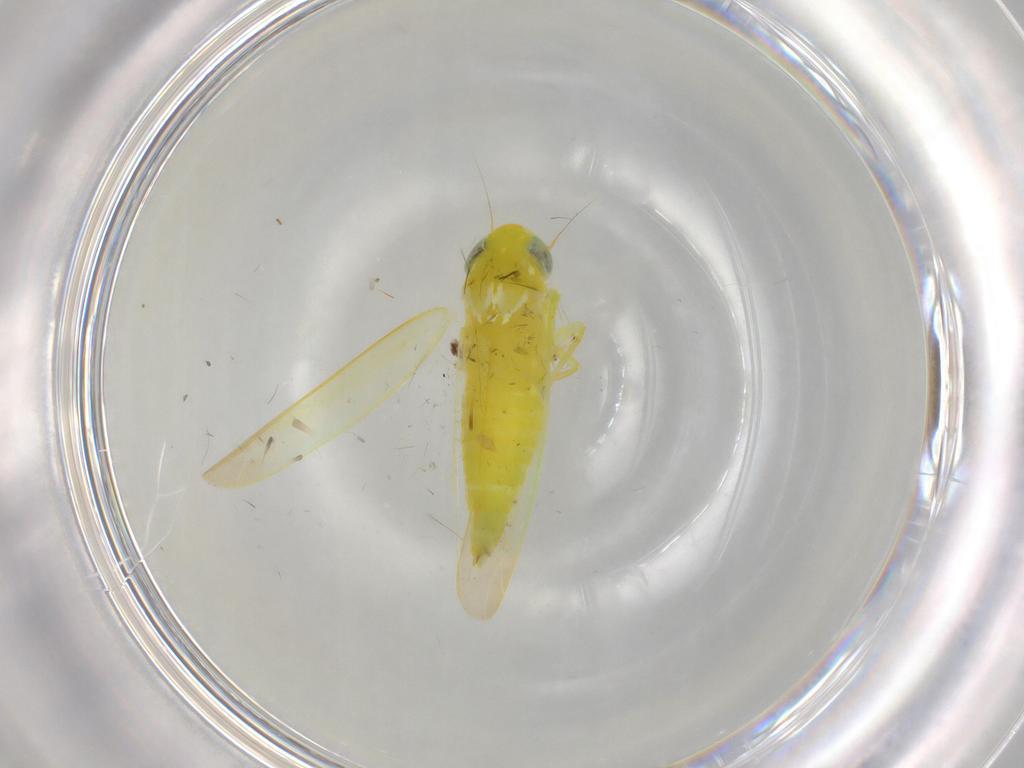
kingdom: Animalia
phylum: Arthropoda
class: Insecta
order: Hemiptera
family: Cicadellidae
